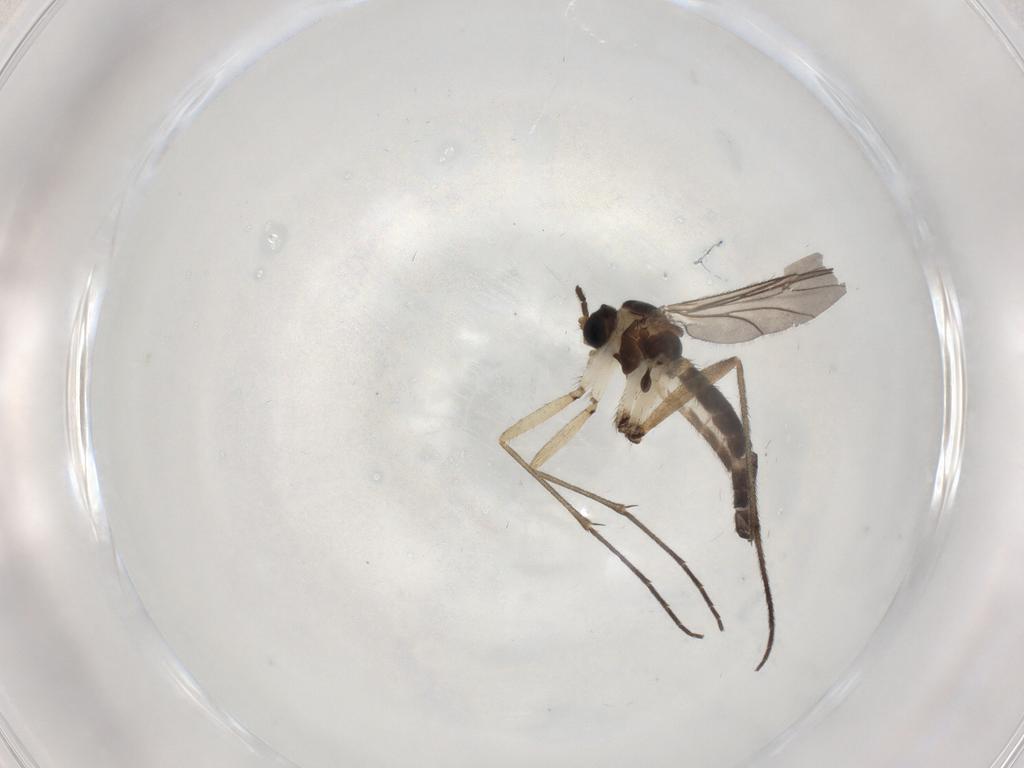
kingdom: Animalia
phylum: Arthropoda
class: Insecta
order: Diptera
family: Sciaridae
